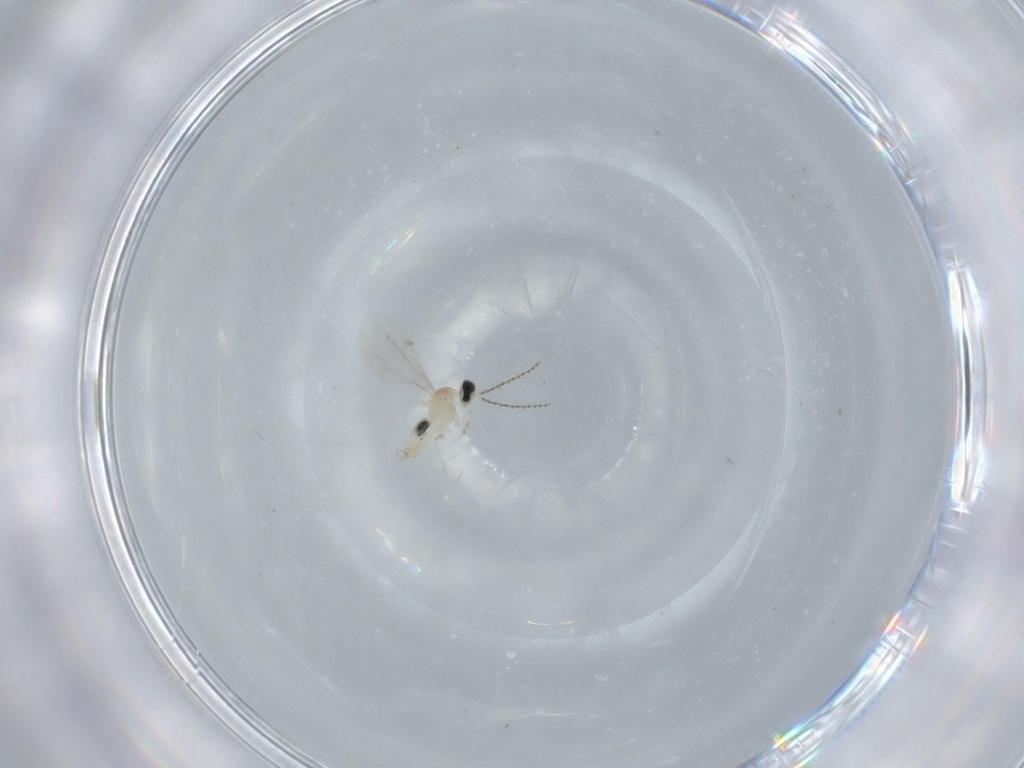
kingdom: Animalia
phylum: Arthropoda
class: Insecta
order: Diptera
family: Cecidomyiidae
